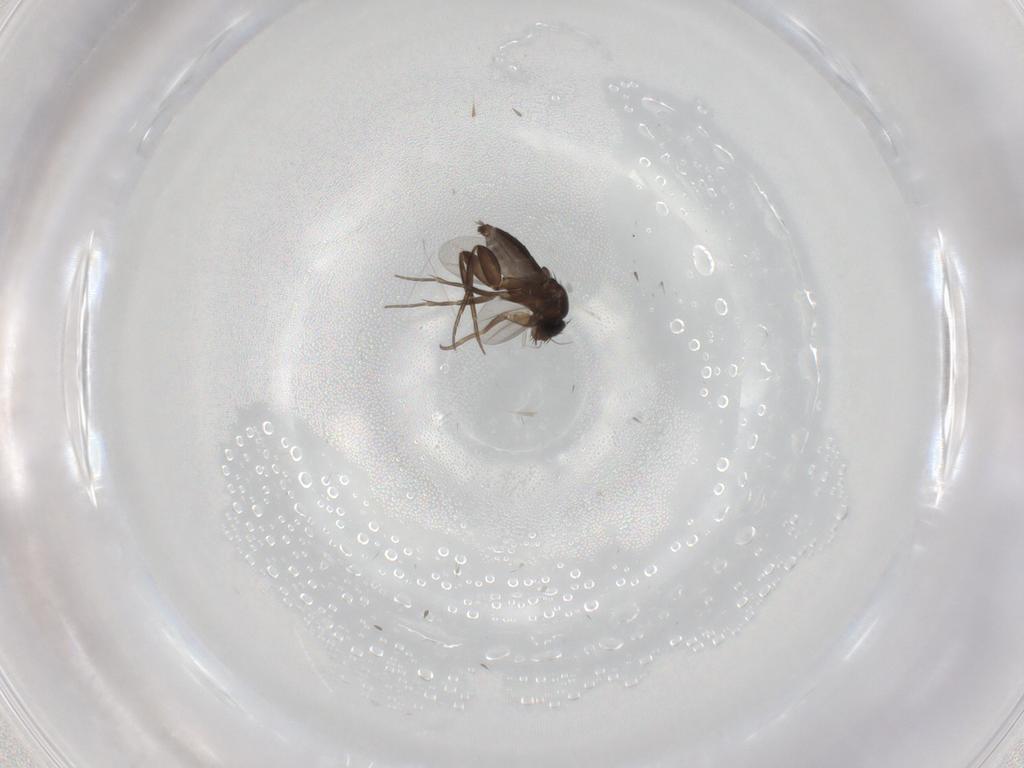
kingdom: Animalia
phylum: Arthropoda
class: Insecta
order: Diptera
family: Phoridae
